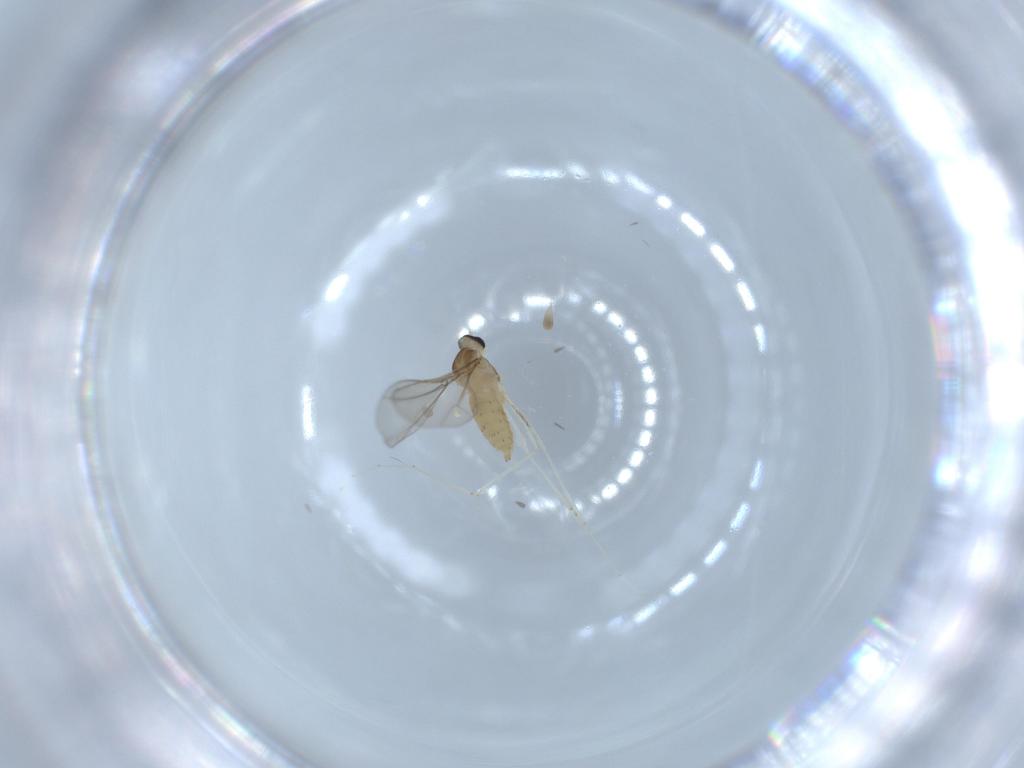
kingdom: Animalia
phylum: Arthropoda
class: Insecta
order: Diptera
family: Cecidomyiidae
